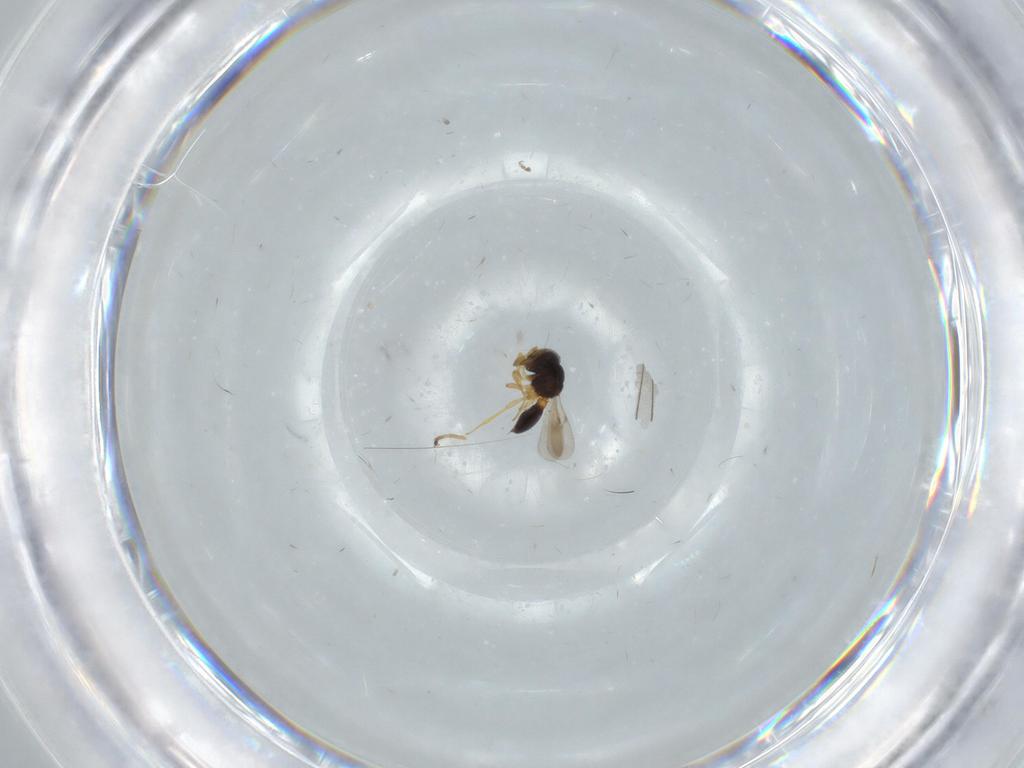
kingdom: Animalia
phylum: Arthropoda
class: Insecta
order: Hymenoptera
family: Scelionidae
